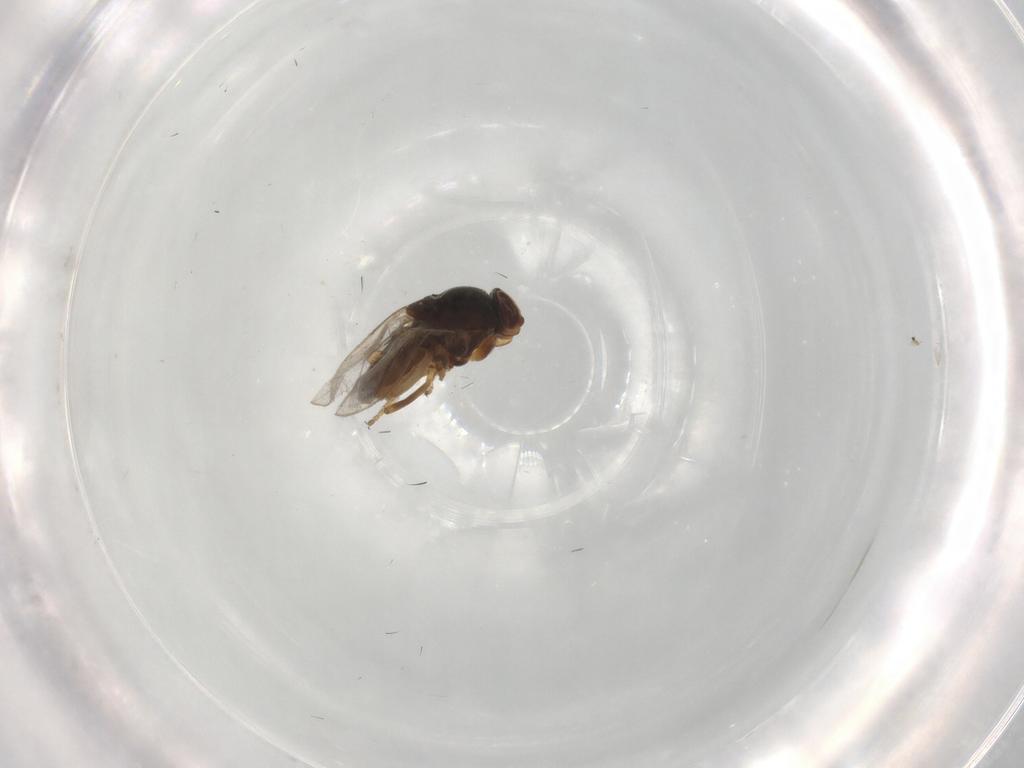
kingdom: Animalia
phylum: Arthropoda
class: Insecta
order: Diptera
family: Chloropidae
